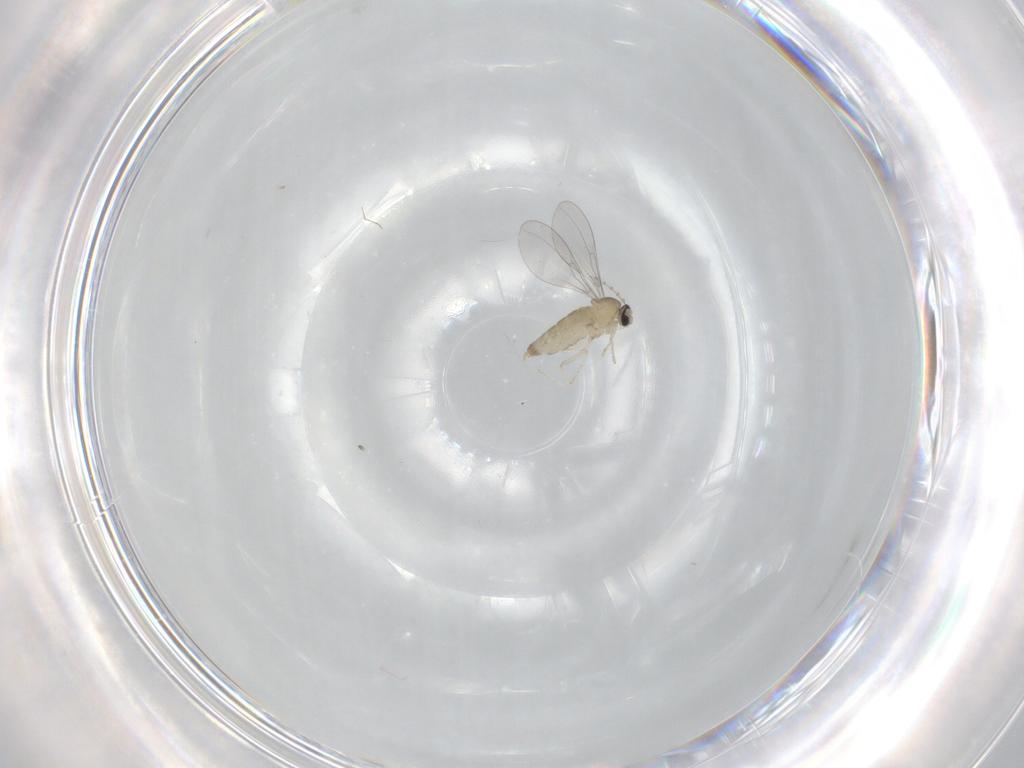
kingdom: Animalia
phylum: Arthropoda
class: Insecta
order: Diptera
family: Cecidomyiidae
